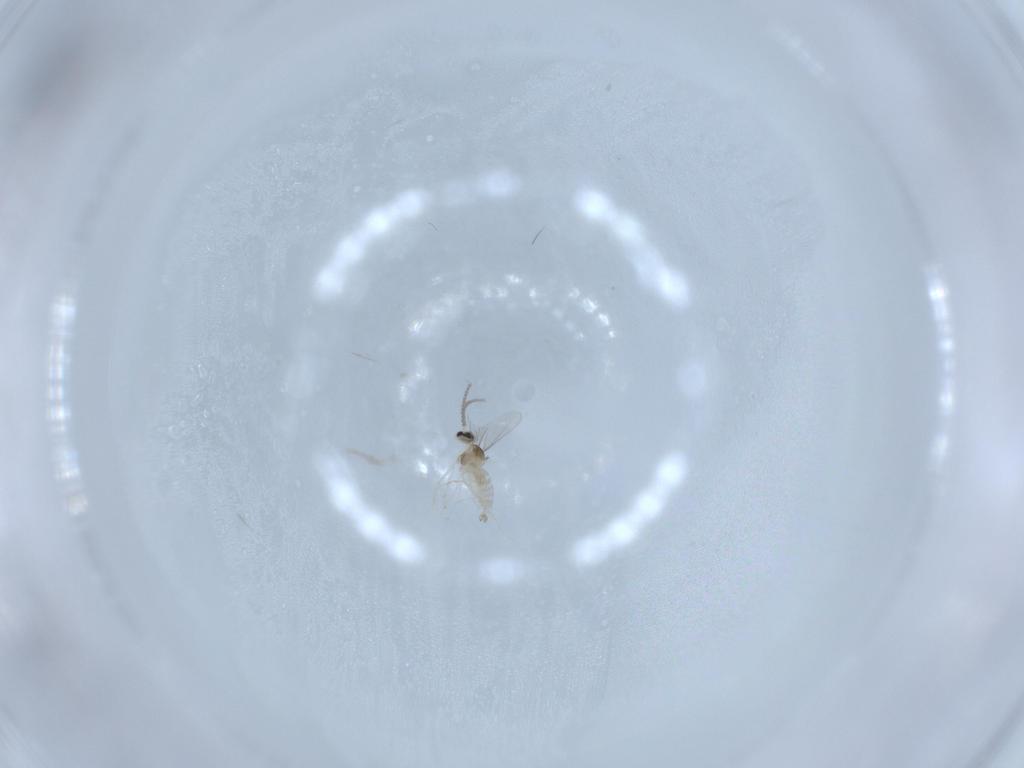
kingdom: Animalia
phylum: Arthropoda
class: Insecta
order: Diptera
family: Cecidomyiidae
